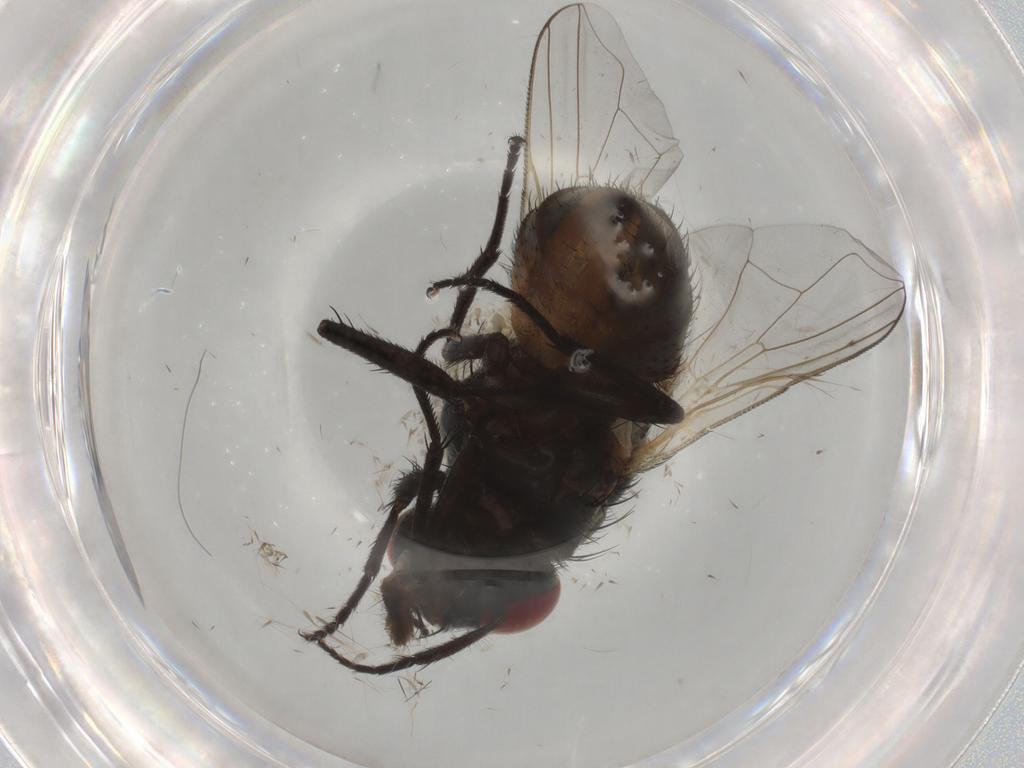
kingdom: Animalia
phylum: Arthropoda
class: Insecta
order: Diptera
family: Muscidae
